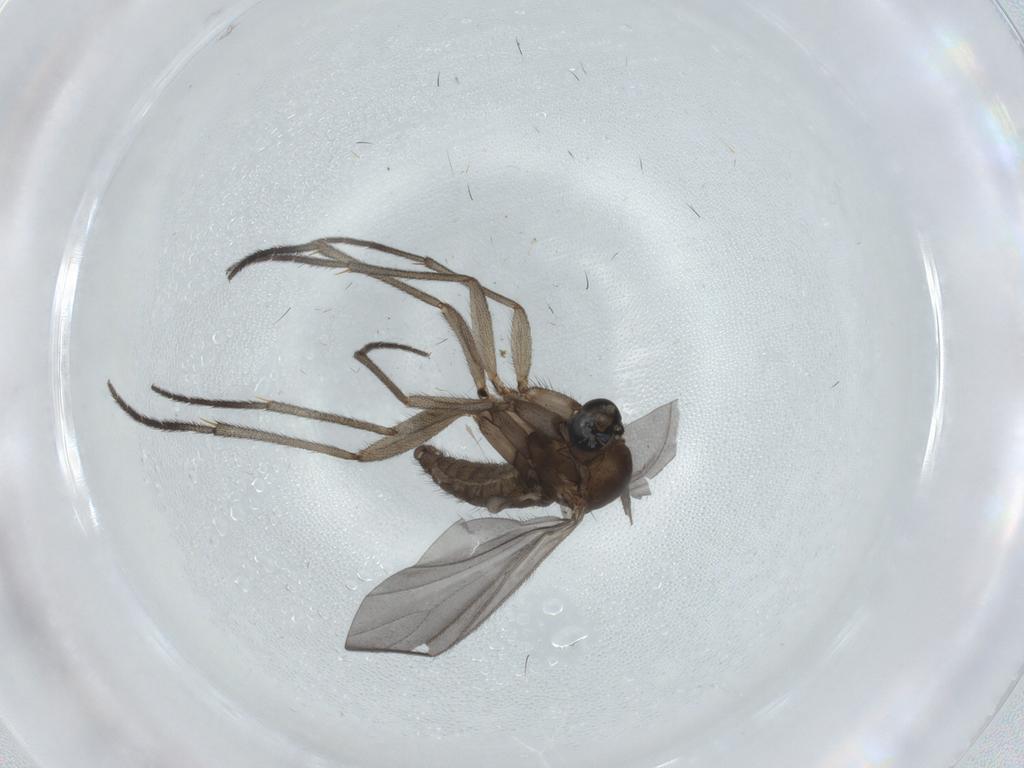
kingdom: Animalia
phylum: Arthropoda
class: Insecta
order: Diptera
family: Sciaridae
